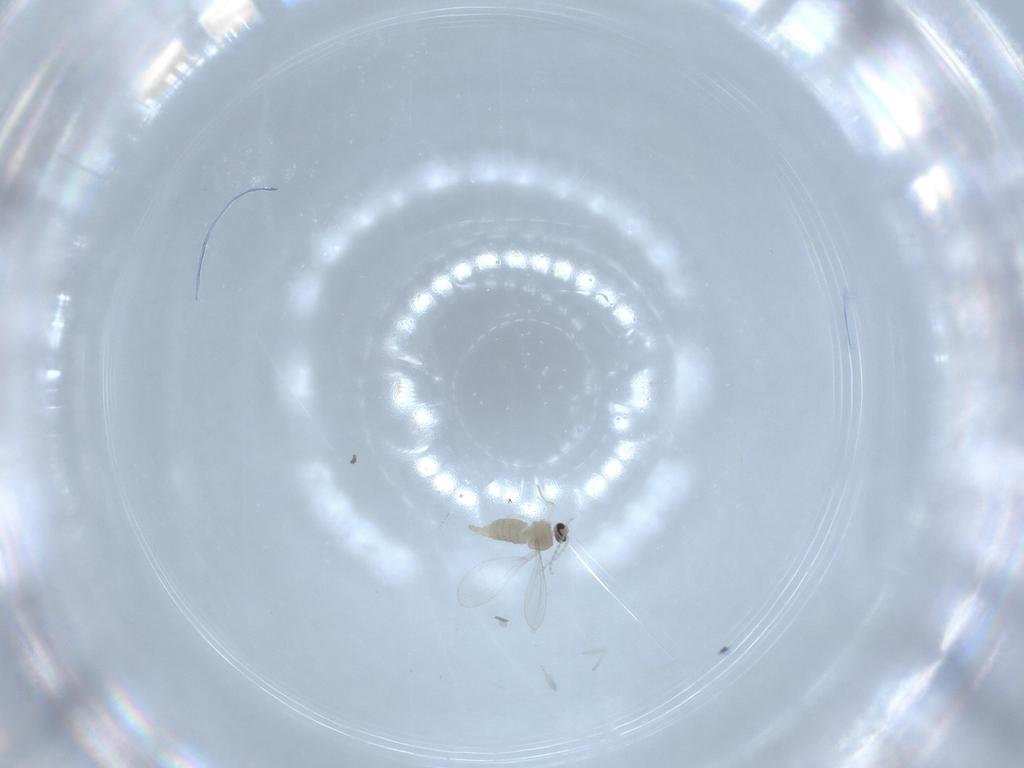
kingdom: Animalia
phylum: Arthropoda
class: Insecta
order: Diptera
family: Cecidomyiidae
